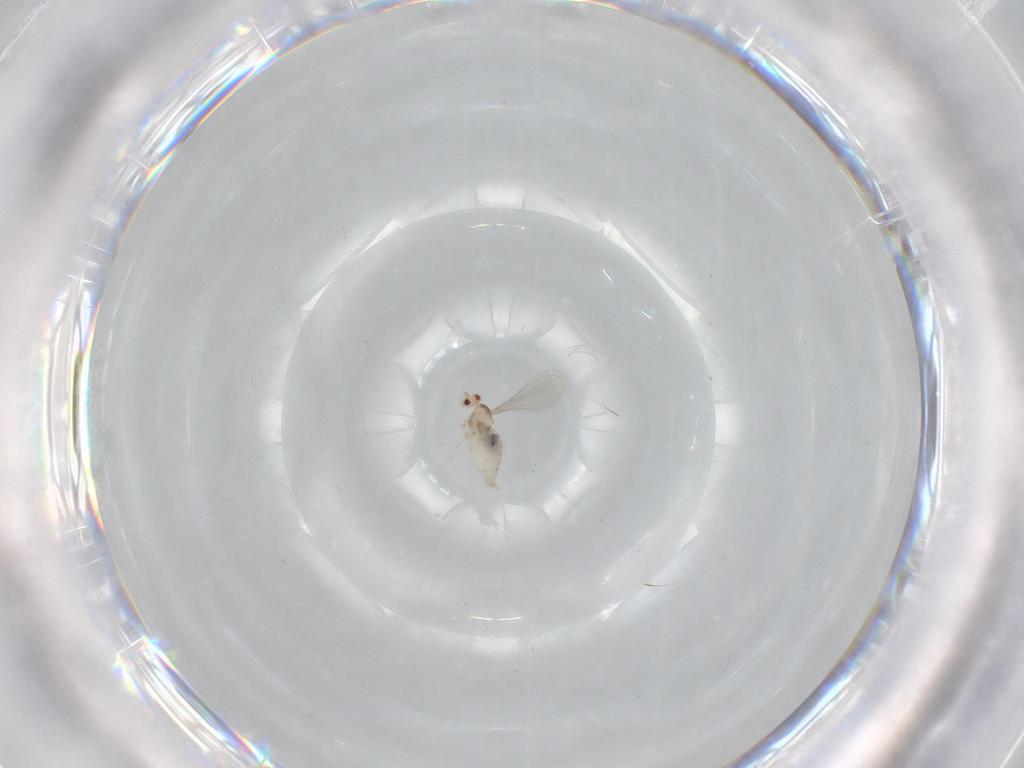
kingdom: Animalia
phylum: Arthropoda
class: Insecta
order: Diptera
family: Cecidomyiidae
